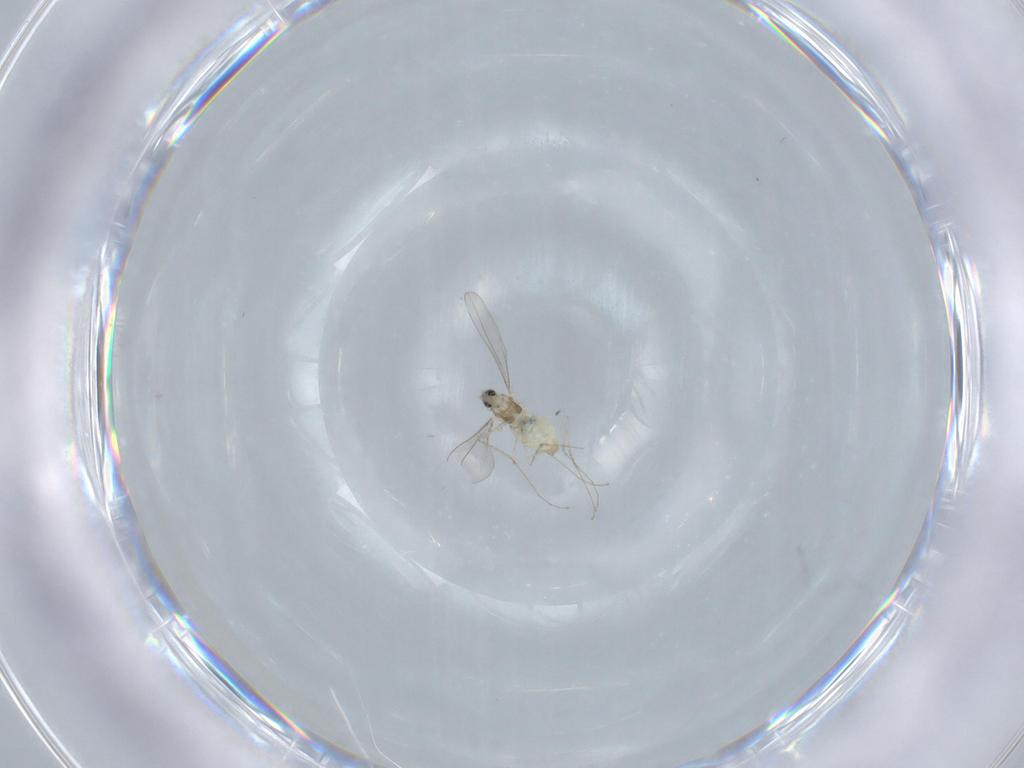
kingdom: Animalia
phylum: Arthropoda
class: Insecta
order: Diptera
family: Cecidomyiidae
